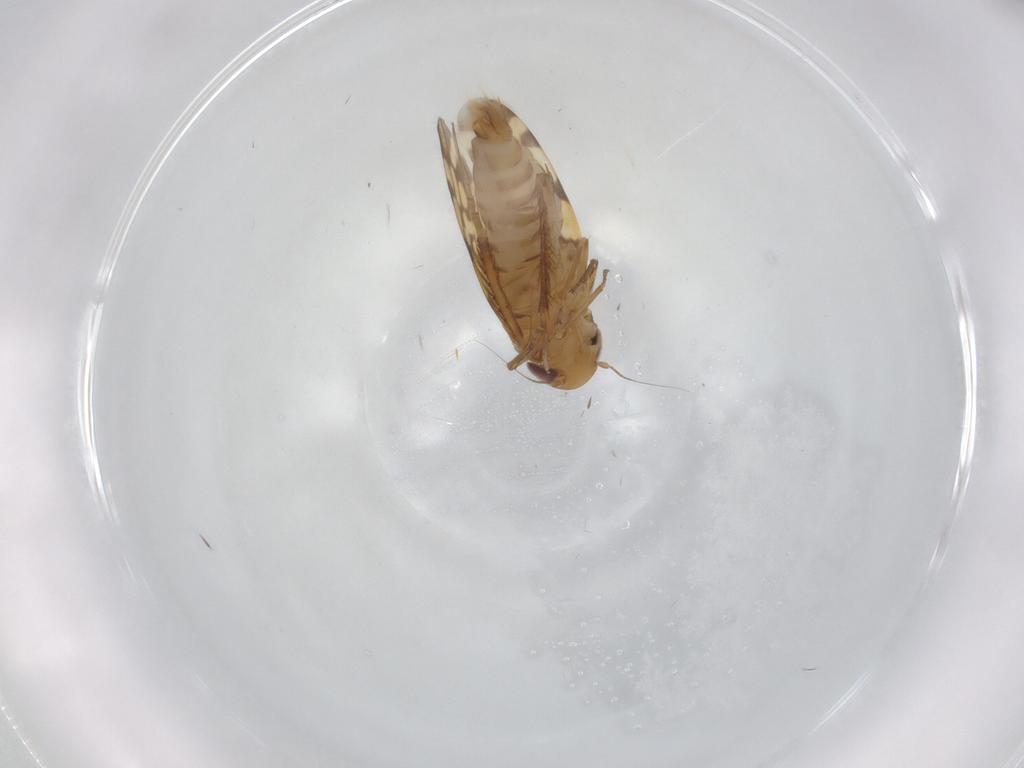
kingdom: Animalia
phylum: Arthropoda
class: Insecta
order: Hemiptera
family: Cicadellidae
